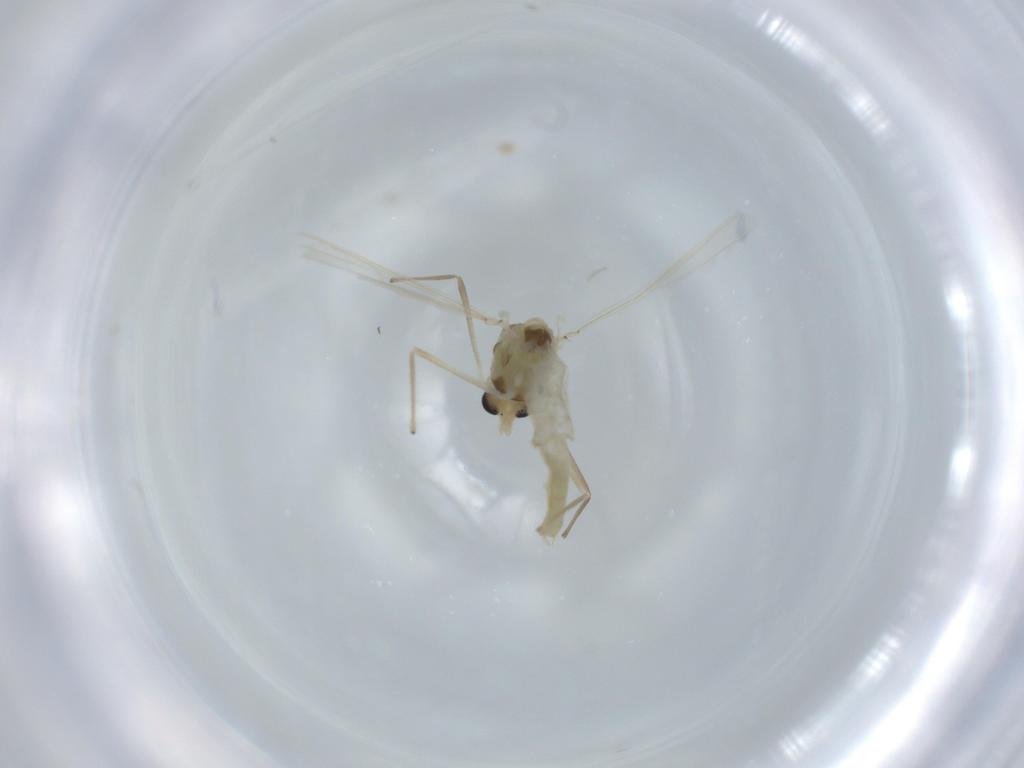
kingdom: Animalia
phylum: Arthropoda
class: Insecta
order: Diptera
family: Chironomidae
